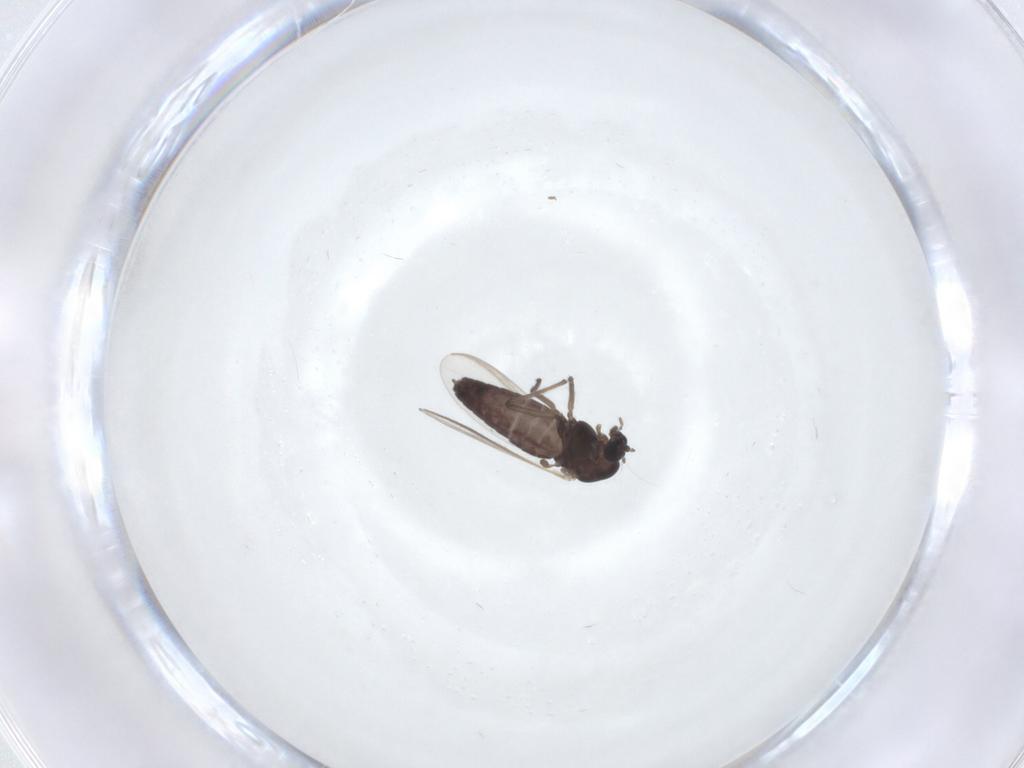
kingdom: Animalia
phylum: Arthropoda
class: Insecta
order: Diptera
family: Chironomidae
